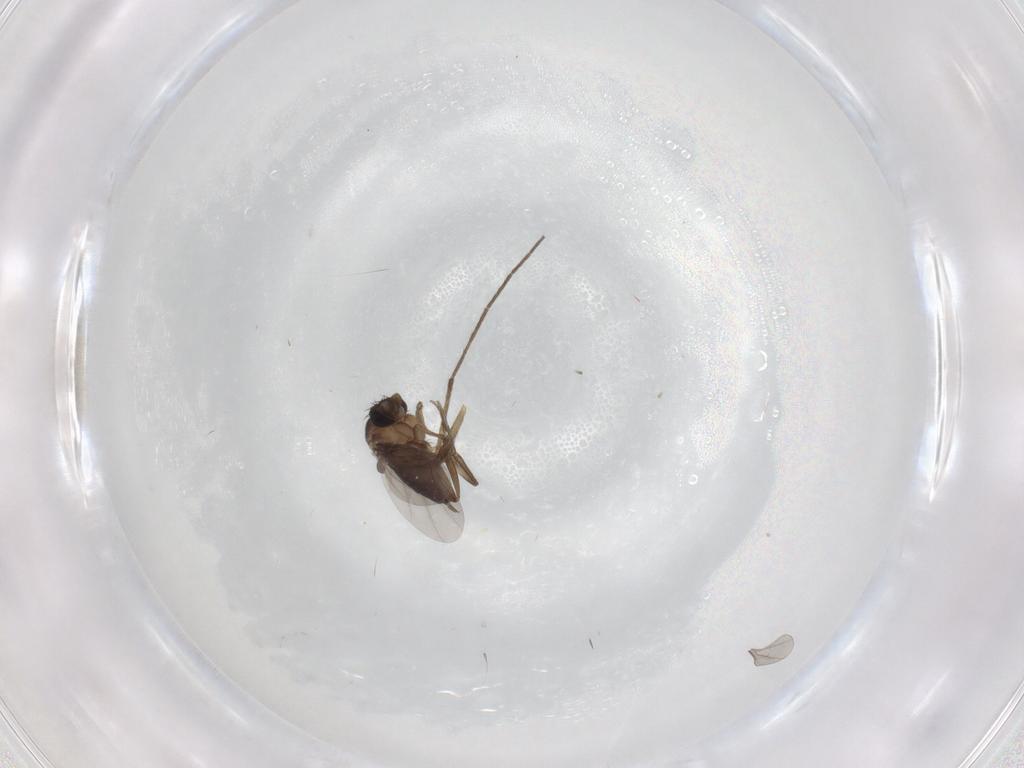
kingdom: Animalia
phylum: Arthropoda
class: Insecta
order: Diptera
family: Phoridae
